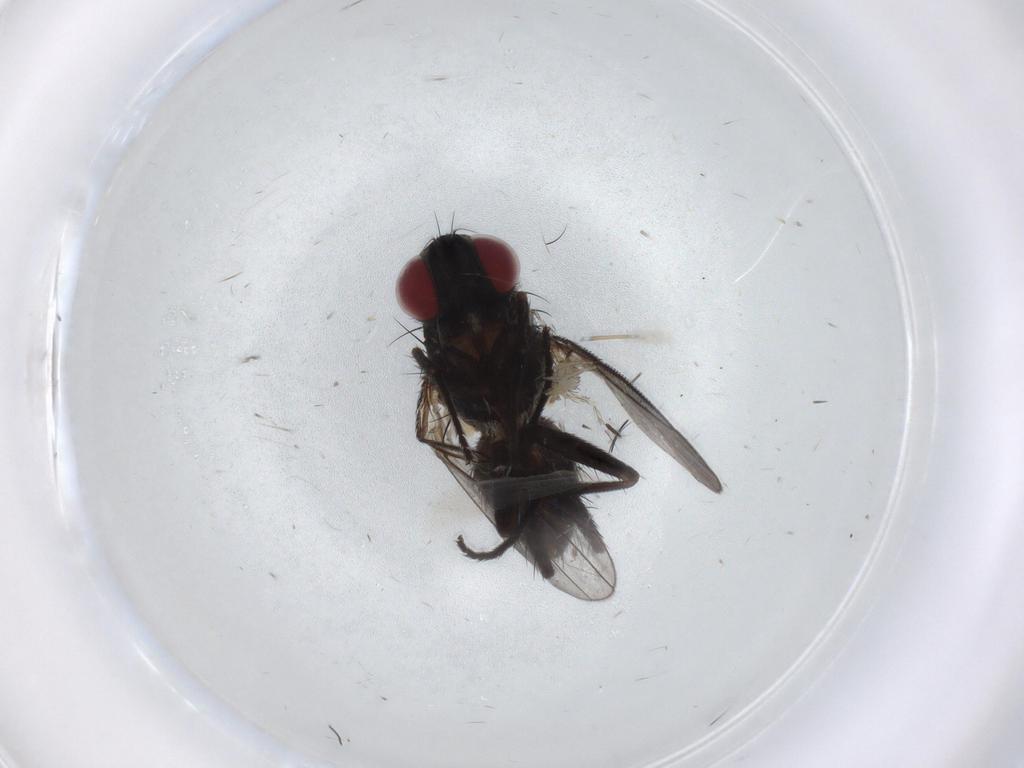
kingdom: Animalia
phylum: Arthropoda
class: Insecta
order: Diptera
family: Muscidae
